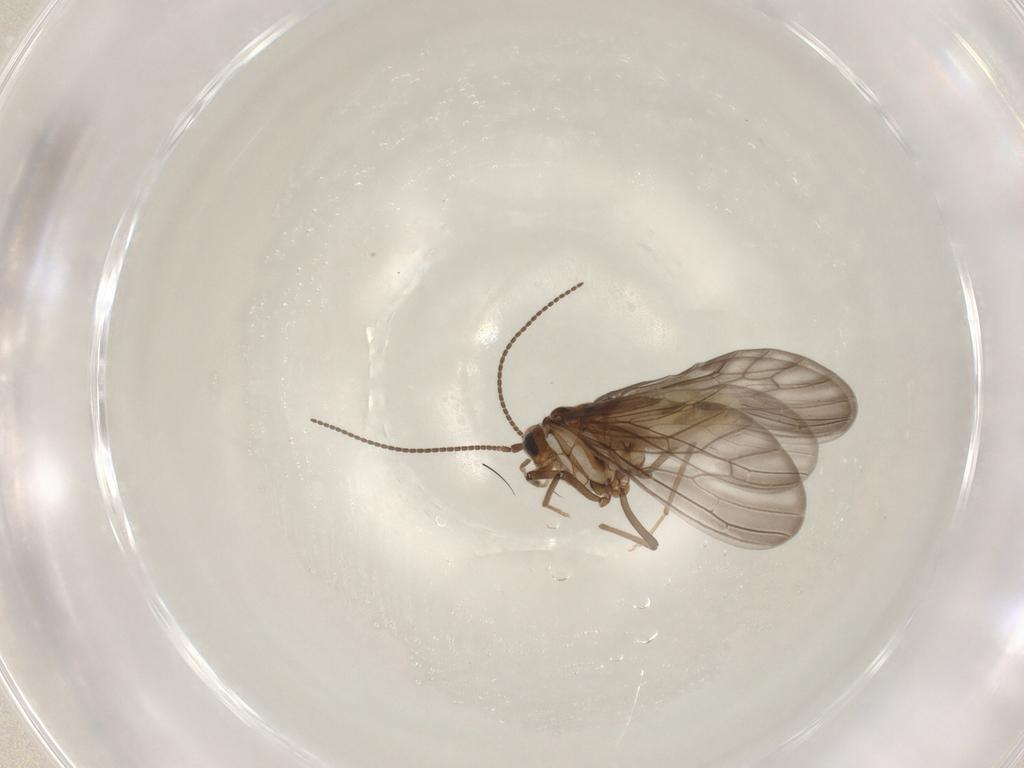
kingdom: Animalia
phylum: Arthropoda
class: Insecta
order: Neuroptera
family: Coniopterygidae
